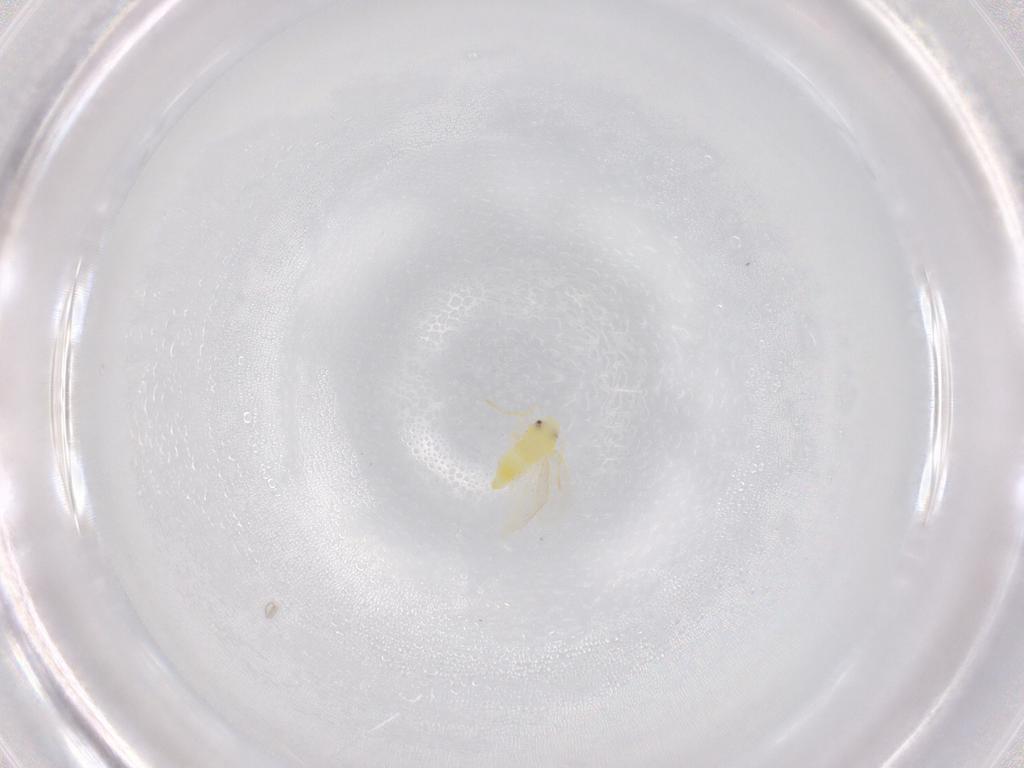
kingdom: Animalia
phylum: Arthropoda
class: Insecta
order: Hemiptera
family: Aleyrodidae
